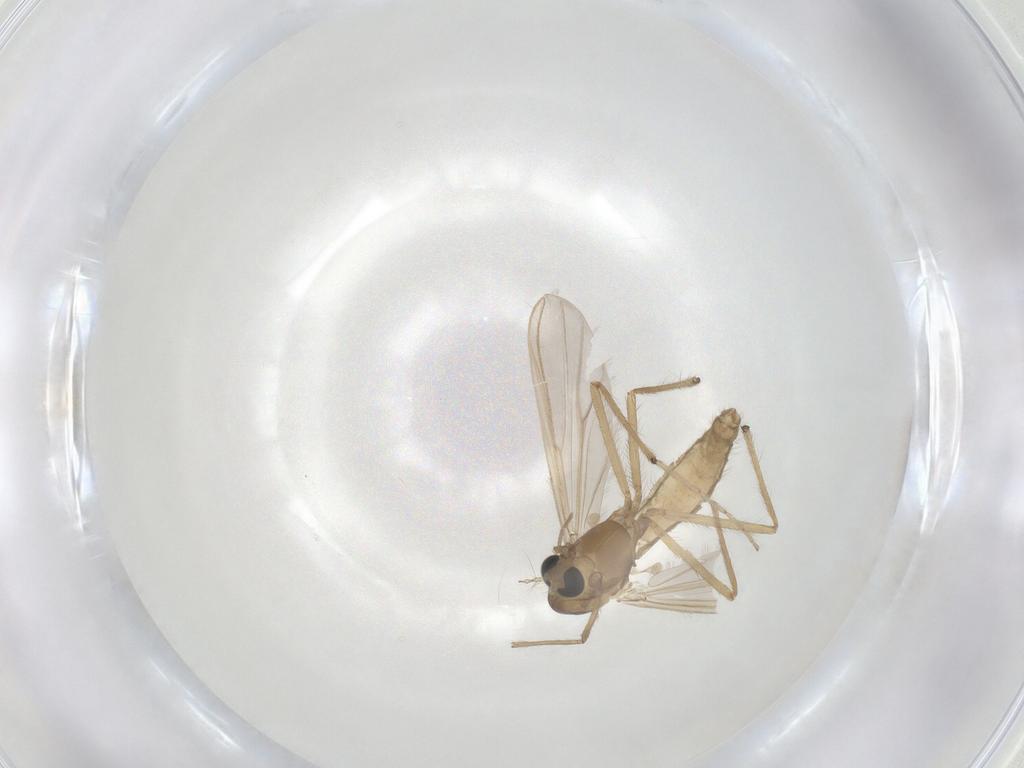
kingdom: Animalia
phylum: Arthropoda
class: Insecta
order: Diptera
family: Chironomidae
